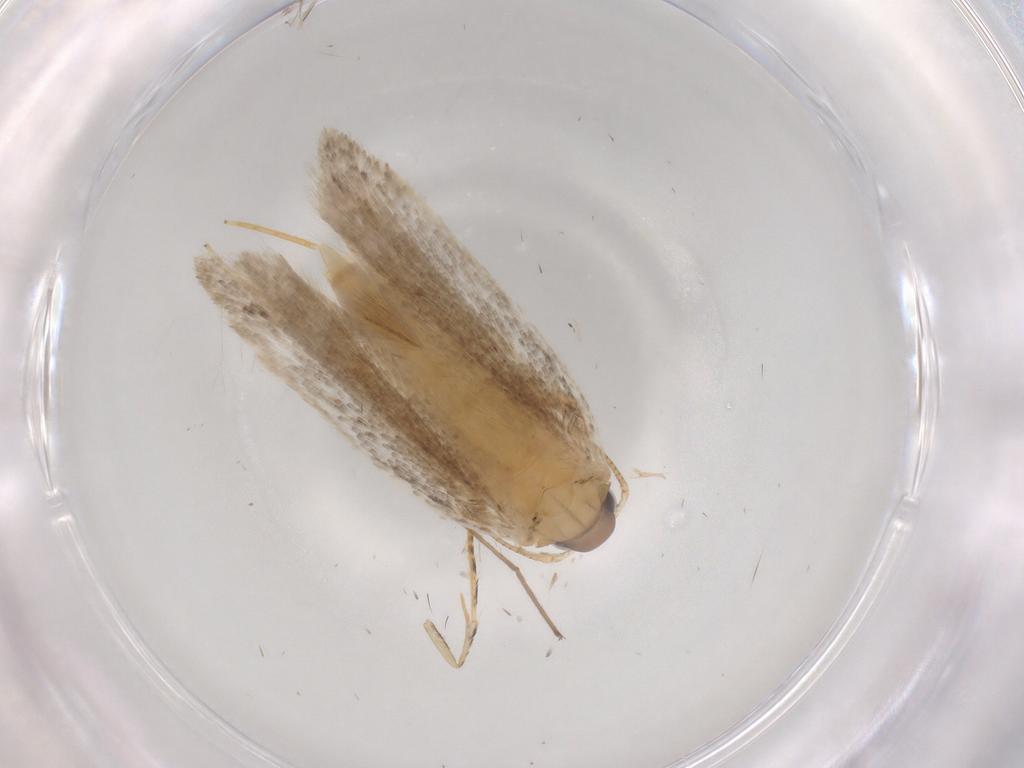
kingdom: Animalia
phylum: Arthropoda
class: Insecta
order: Lepidoptera
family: Autostichidae
